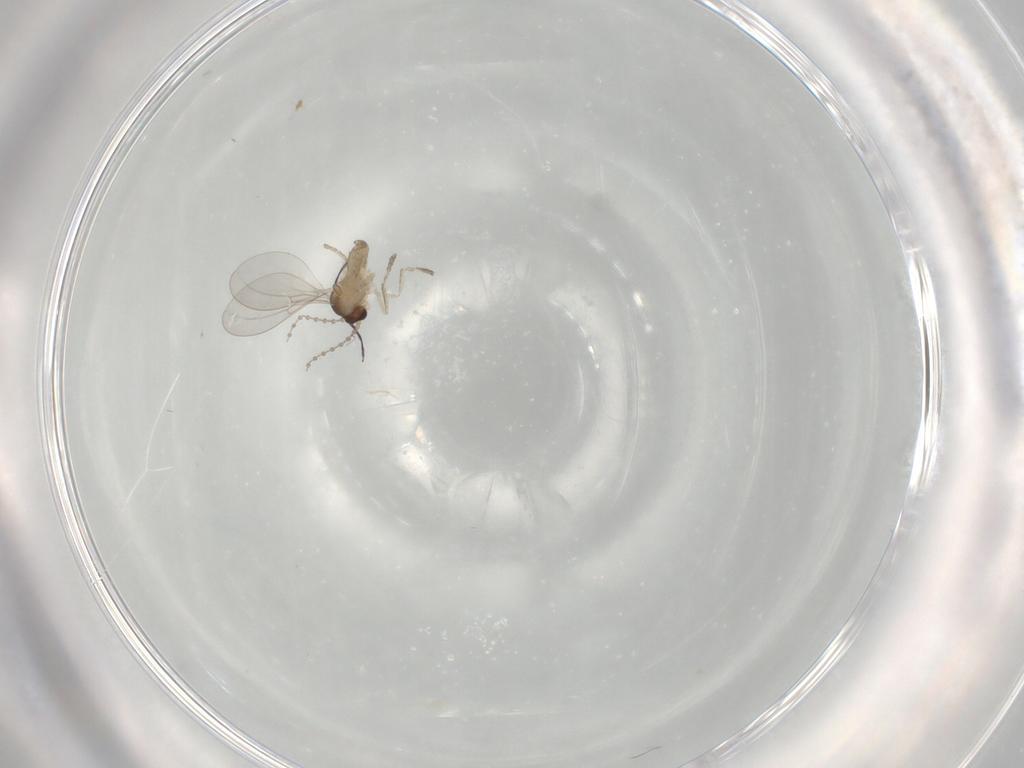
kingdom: Animalia
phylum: Arthropoda
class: Insecta
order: Diptera
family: Cecidomyiidae
